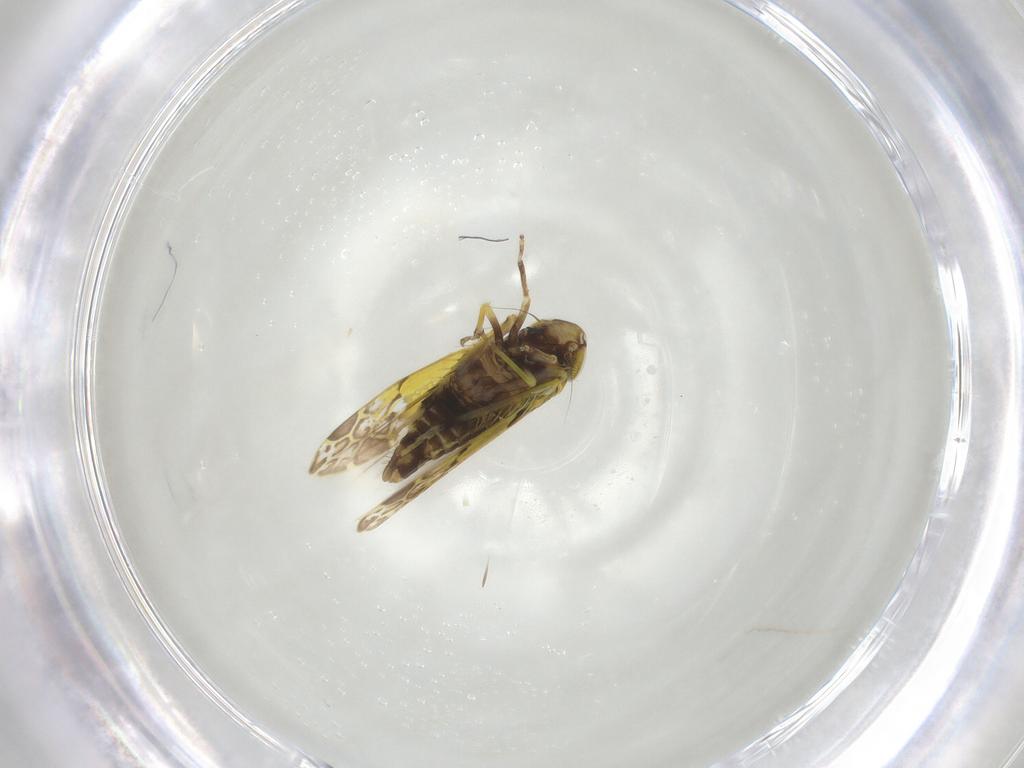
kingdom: Animalia
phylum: Arthropoda
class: Insecta
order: Hemiptera
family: Cicadellidae
